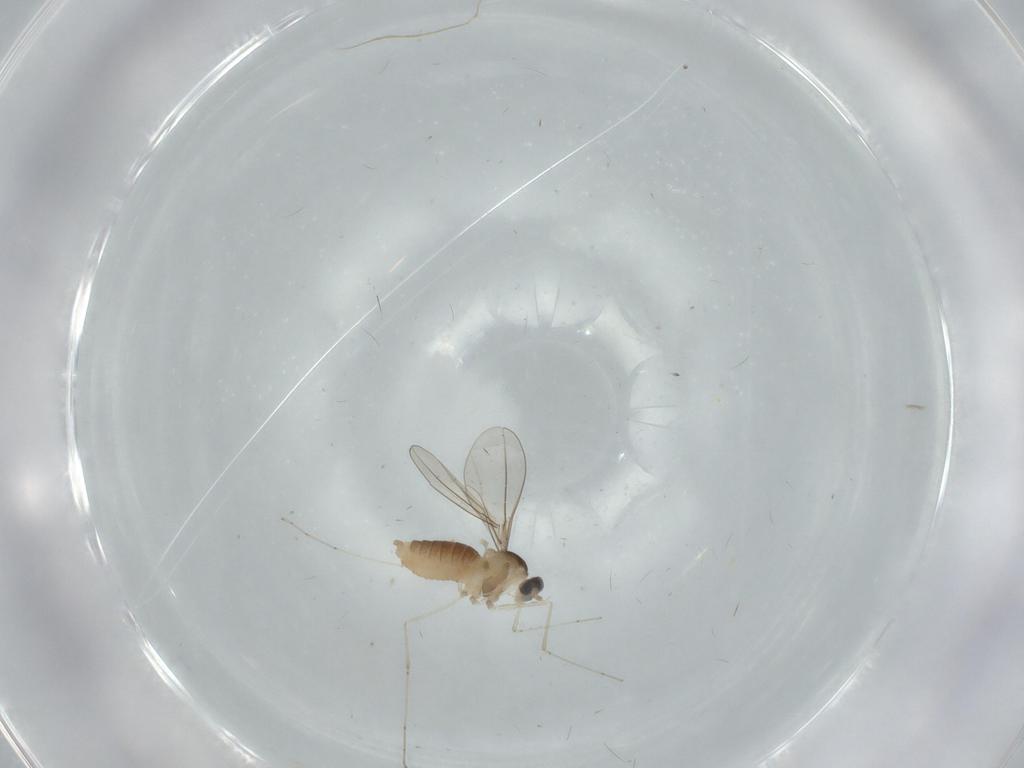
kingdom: Animalia
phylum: Arthropoda
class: Insecta
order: Diptera
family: Cecidomyiidae
